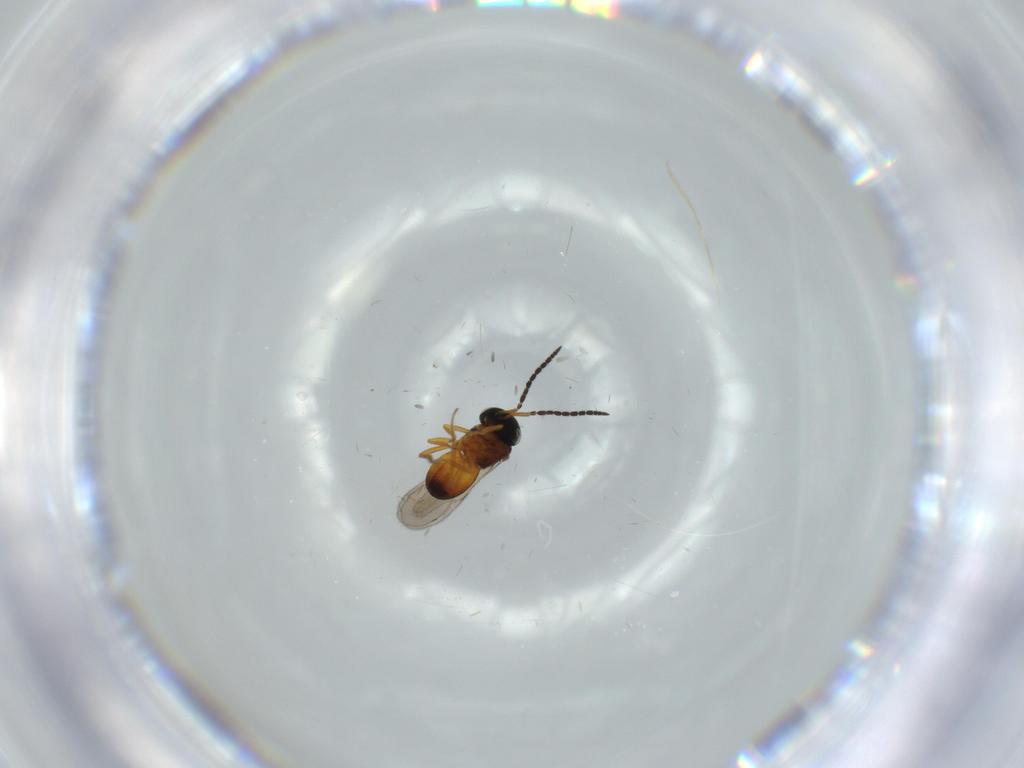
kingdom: Animalia
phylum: Arthropoda
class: Insecta
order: Hymenoptera
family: Scelionidae
